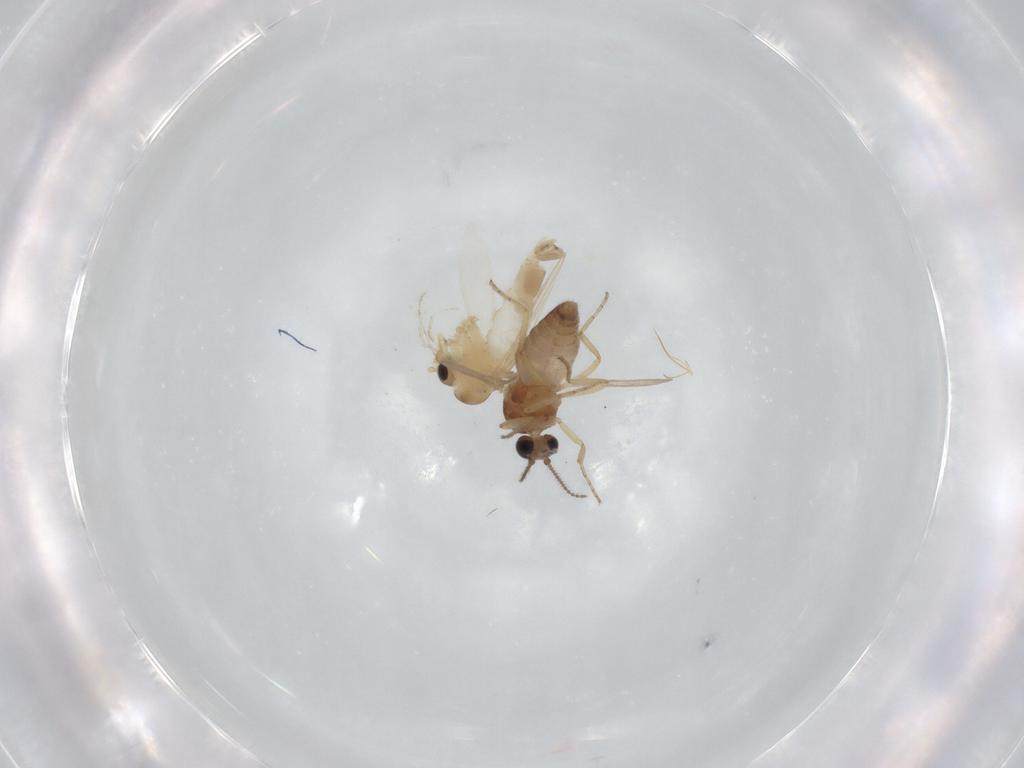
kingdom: Animalia
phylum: Arthropoda
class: Insecta
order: Diptera
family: Psychodidae
